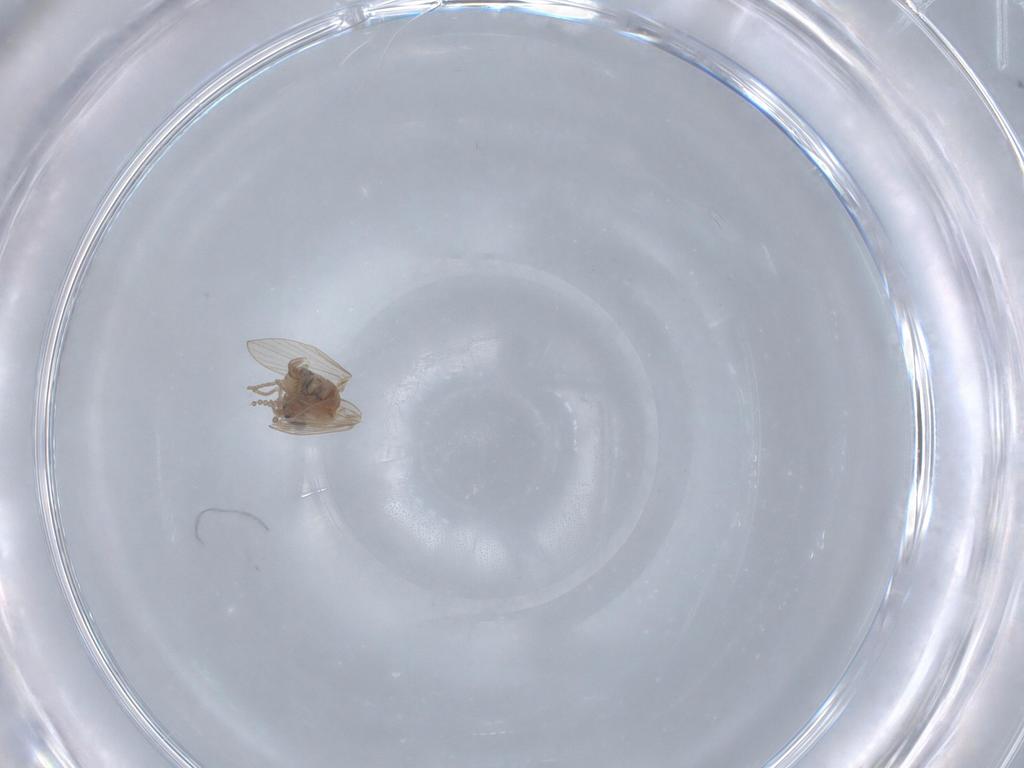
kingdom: Animalia
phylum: Arthropoda
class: Insecta
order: Diptera
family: Psychodidae
